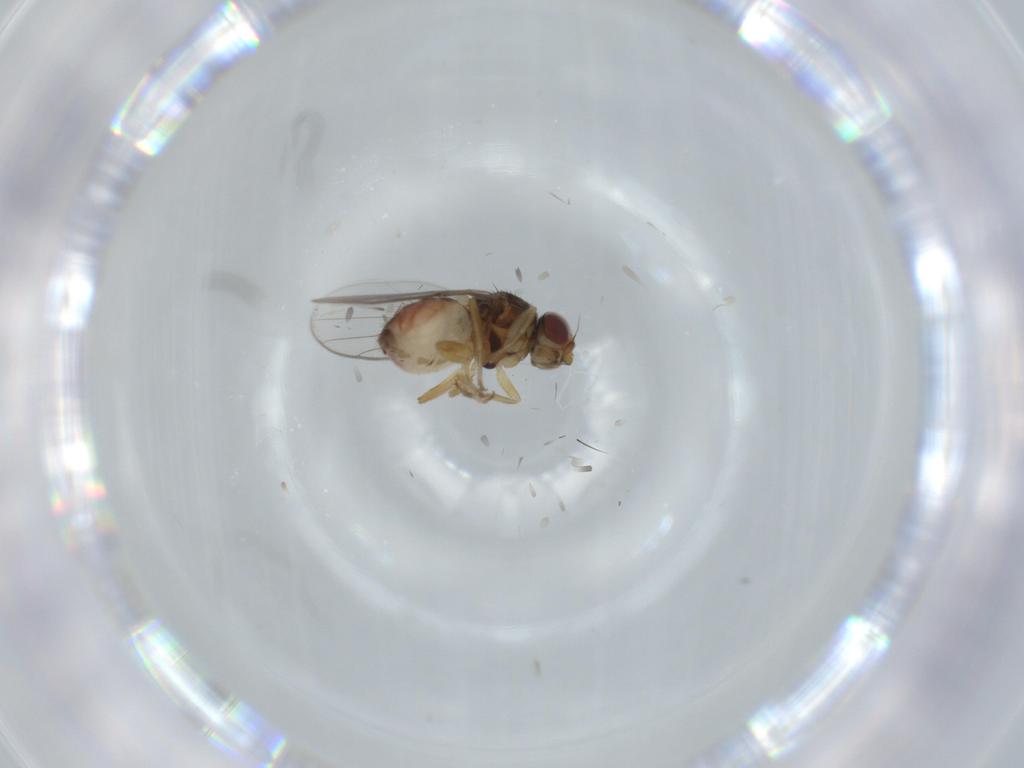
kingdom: Animalia
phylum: Arthropoda
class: Insecta
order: Diptera
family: Chloropidae
